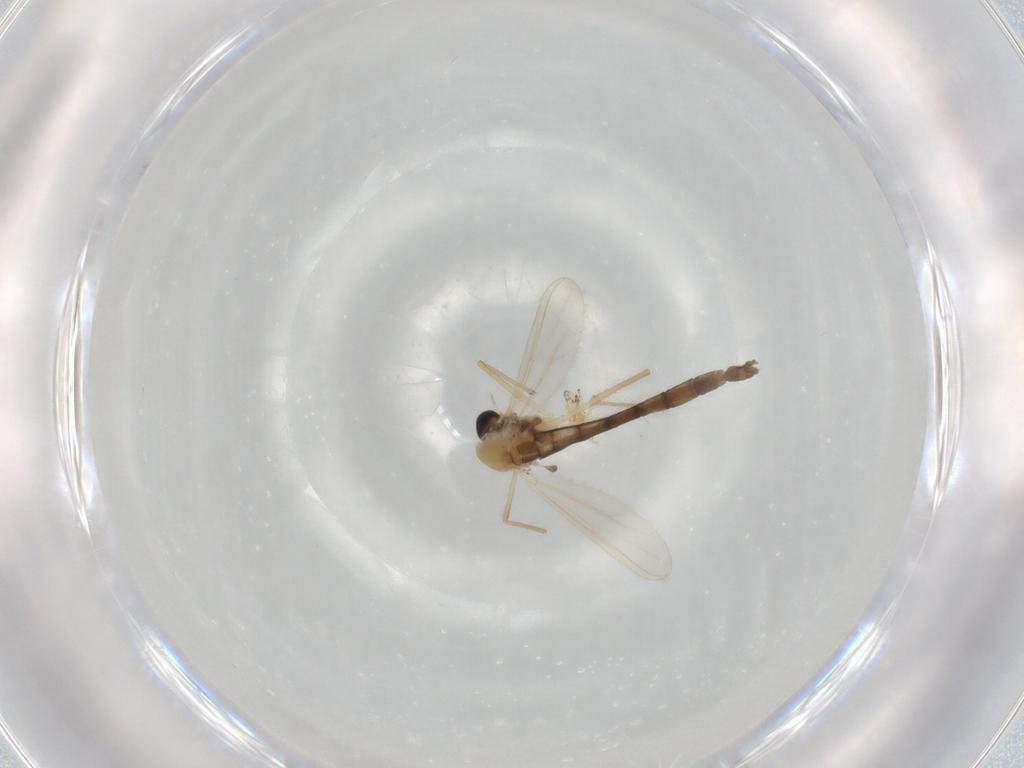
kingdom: Animalia
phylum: Arthropoda
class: Insecta
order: Diptera
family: Chironomidae
